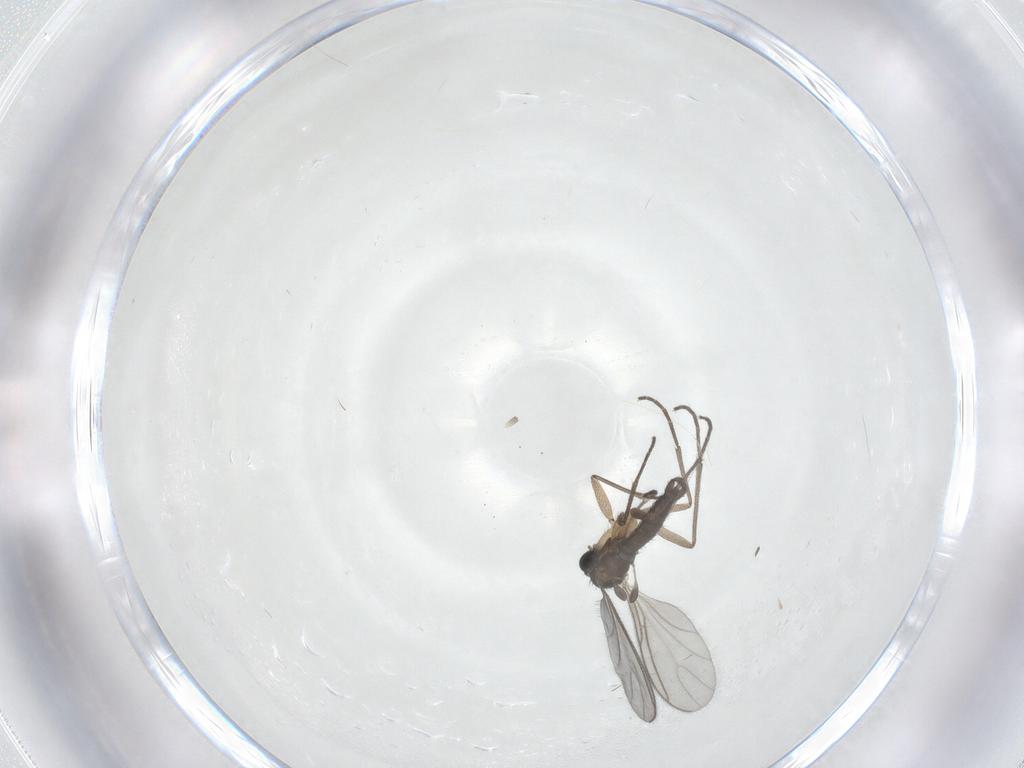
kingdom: Animalia
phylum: Arthropoda
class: Insecta
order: Diptera
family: Sciaridae
